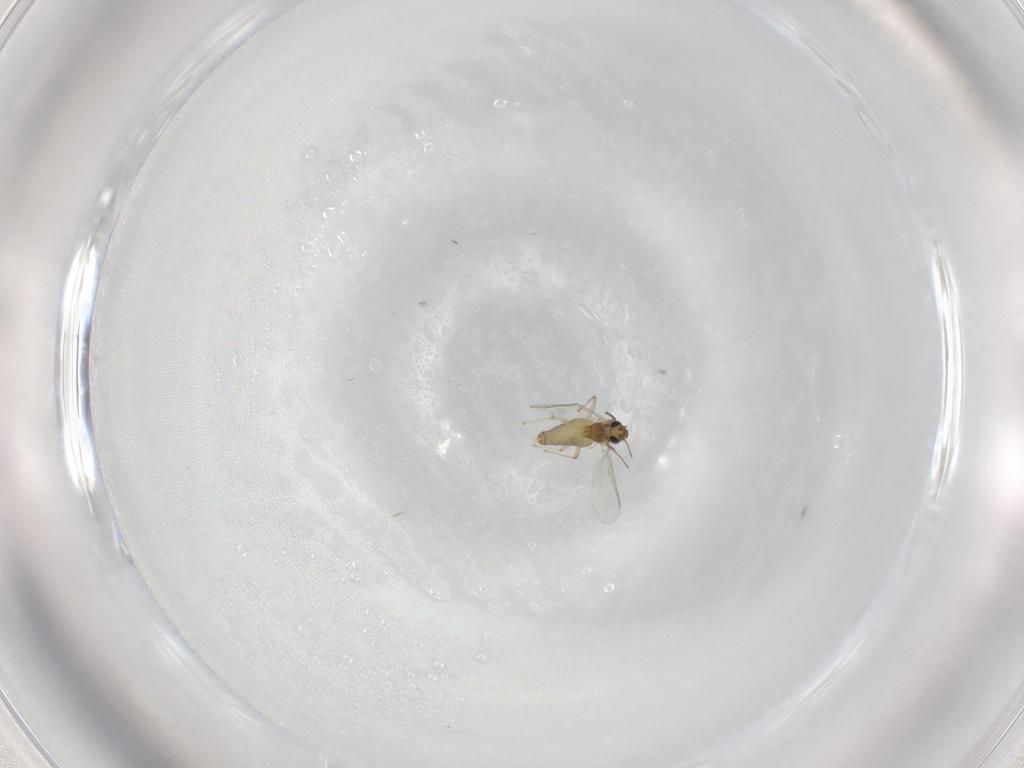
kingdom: Animalia
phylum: Arthropoda
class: Insecta
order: Diptera
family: Chironomidae
